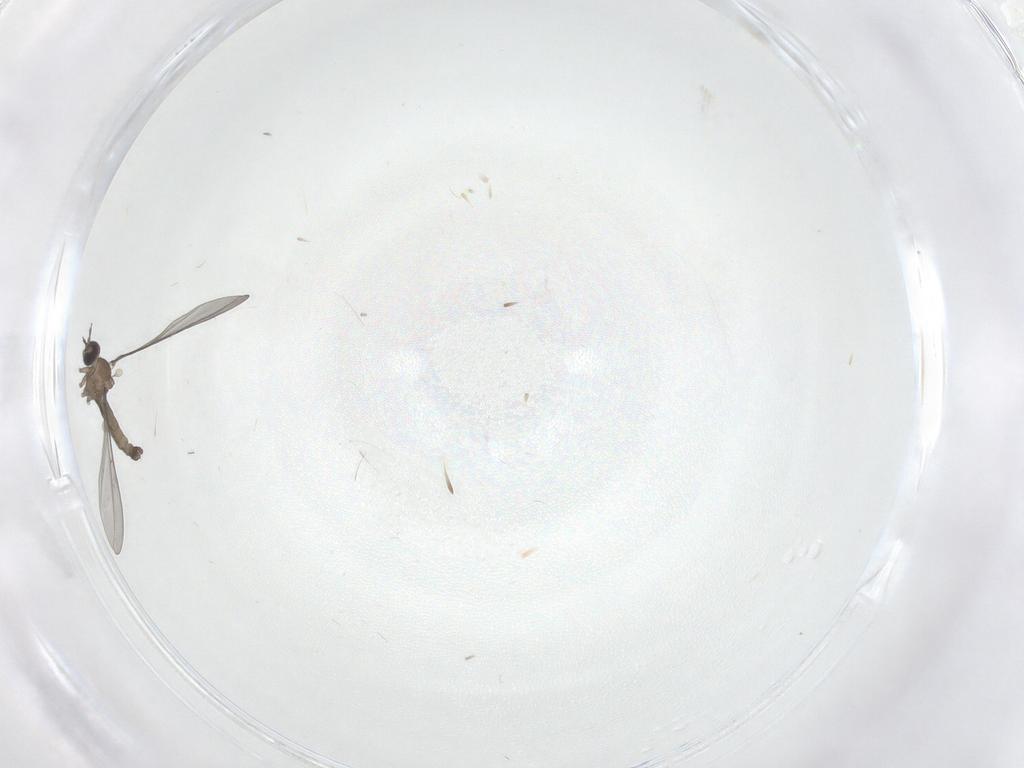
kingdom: Animalia
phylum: Arthropoda
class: Insecta
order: Diptera
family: Cecidomyiidae
